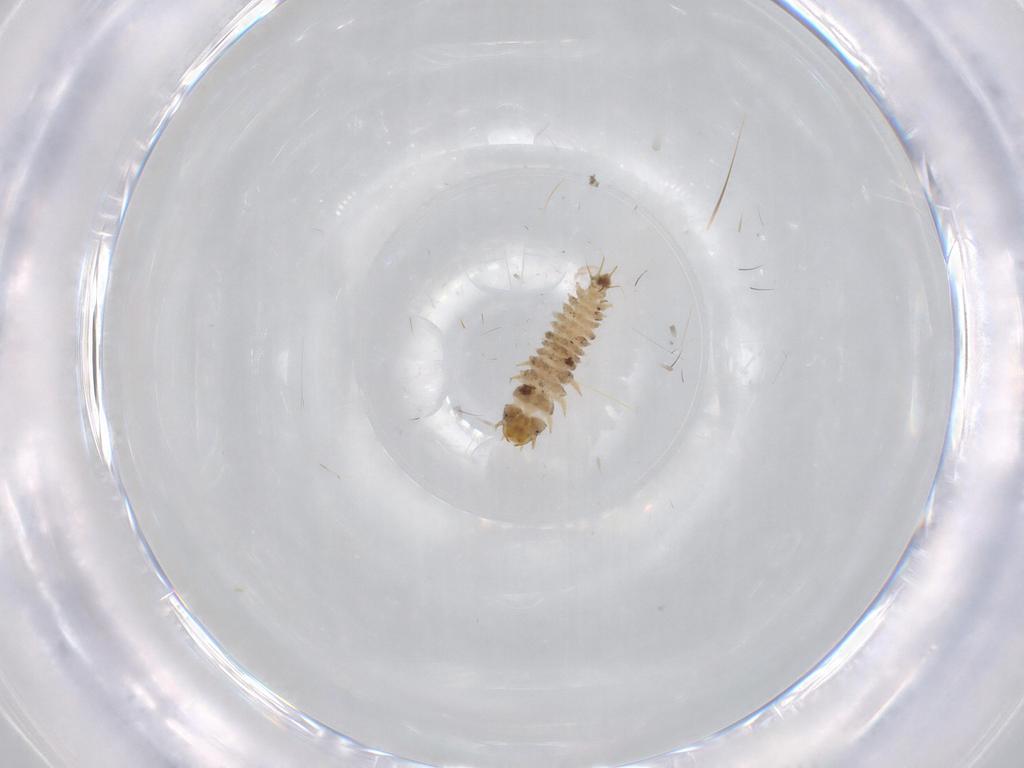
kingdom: Animalia
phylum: Arthropoda
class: Insecta
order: Coleoptera
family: Nitidulidae
